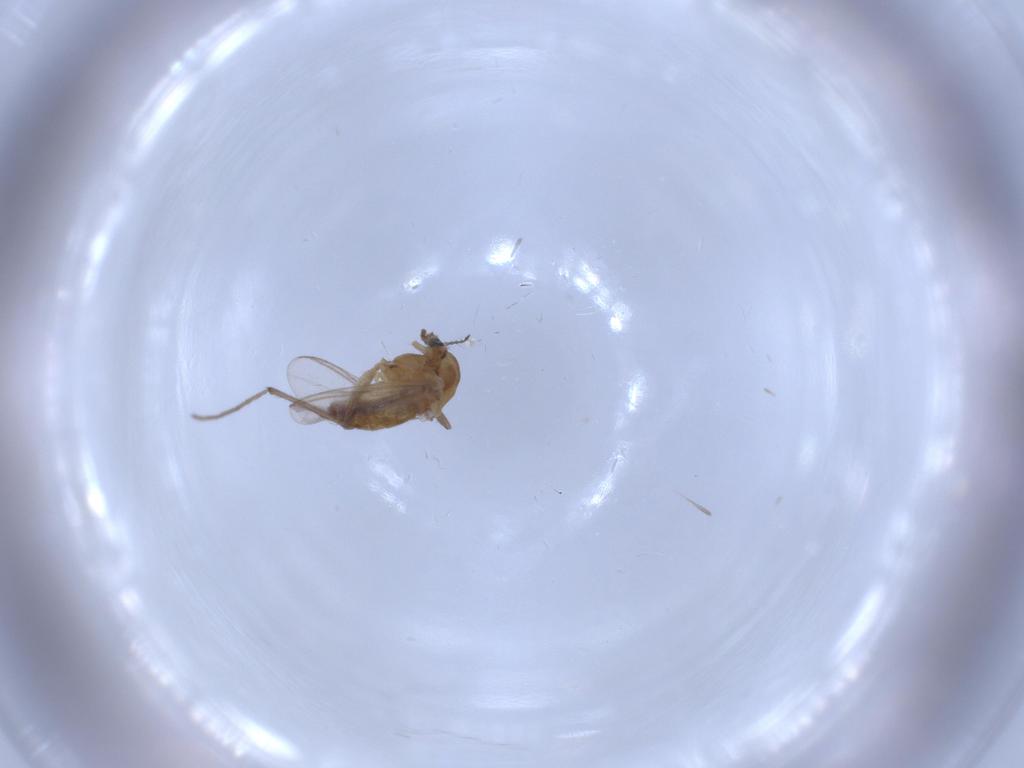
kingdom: Animalia
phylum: Arthropoda
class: Insecta
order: Diptera
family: Chironomidae
